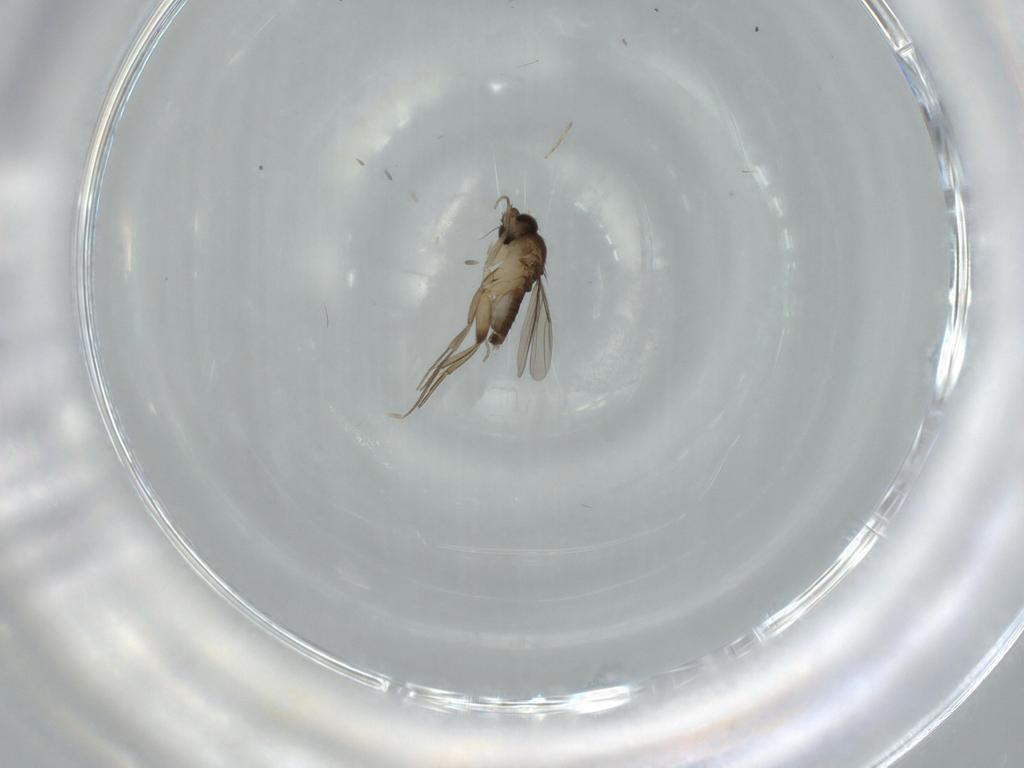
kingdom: Animalia
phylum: Arthropoda
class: Insecta
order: Diptera
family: Phoridae
